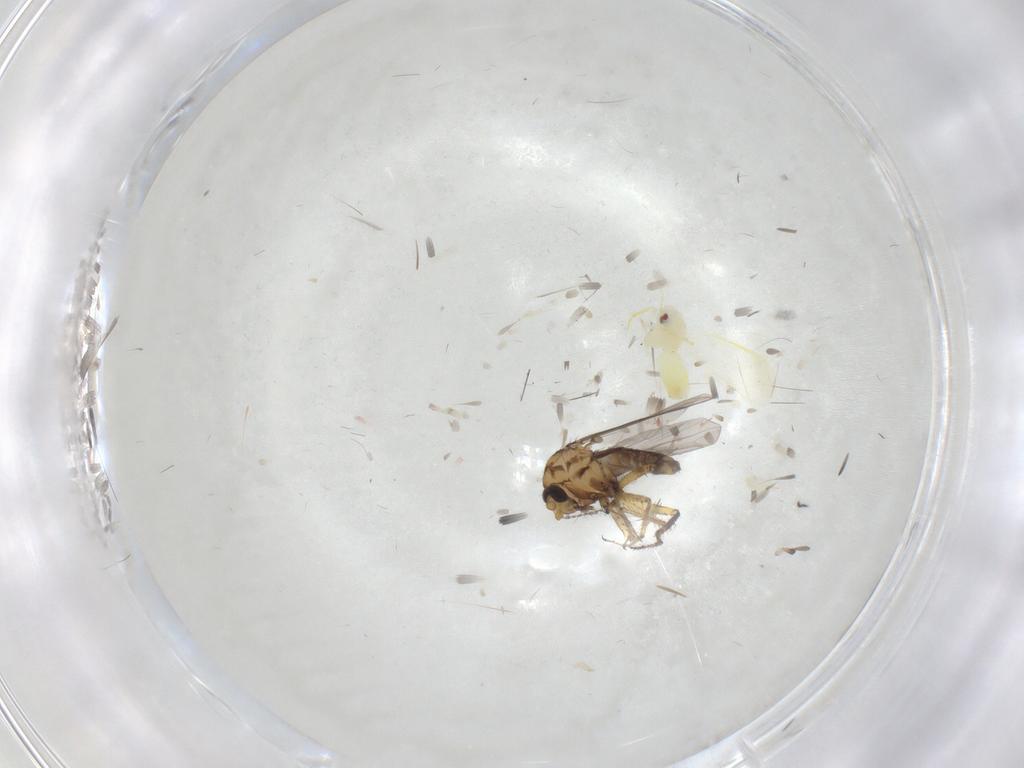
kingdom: Animalia
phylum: Arthropoda
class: Insecta
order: Diptera
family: Ceratopogonidae
